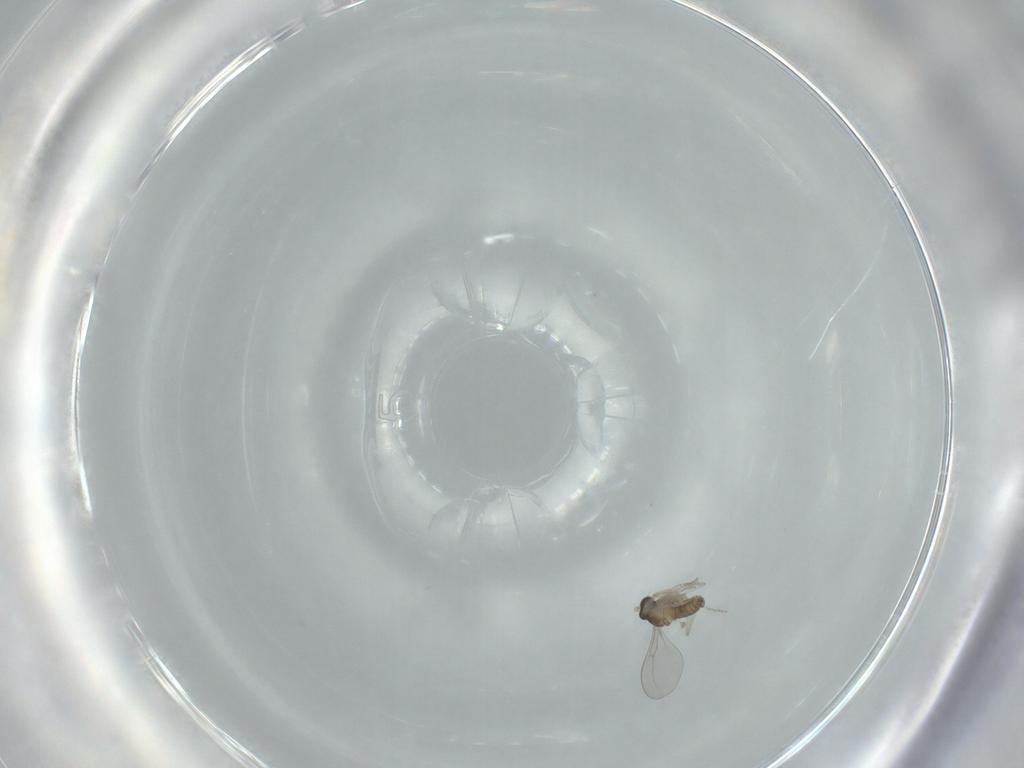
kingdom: Animalia
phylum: Arthropoda
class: Insecta
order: Diptera
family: Cecidomyiidae
